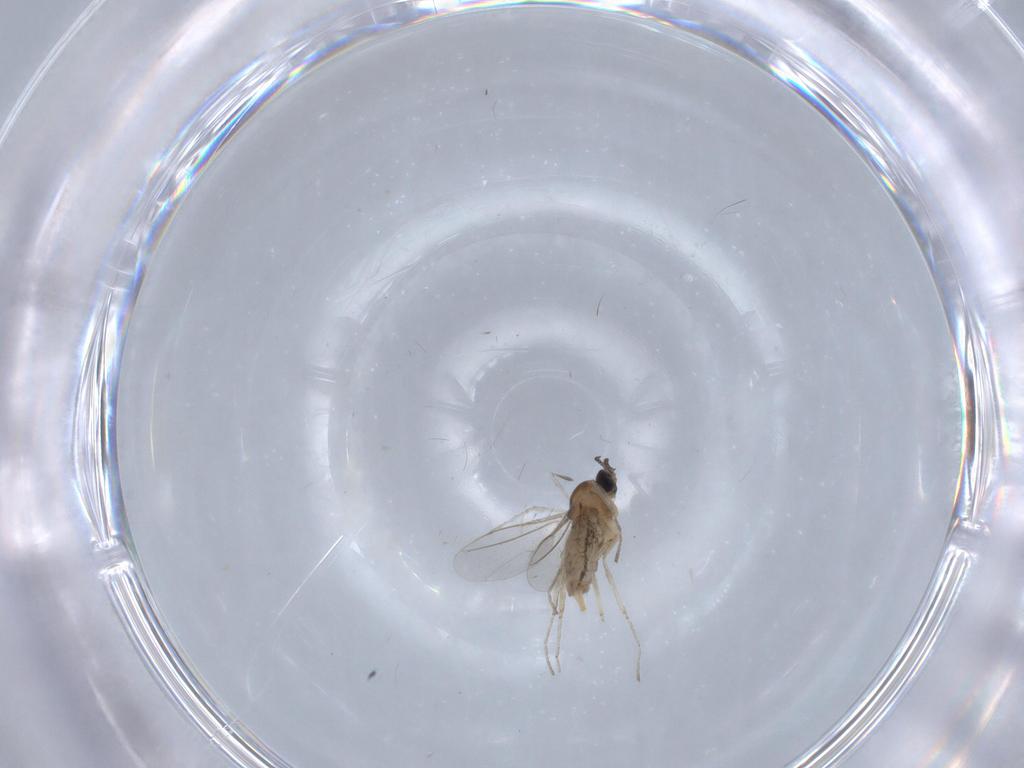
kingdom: Animalia
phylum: Arthropoda
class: Insecta
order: Diptera
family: Cecidomyiidae
